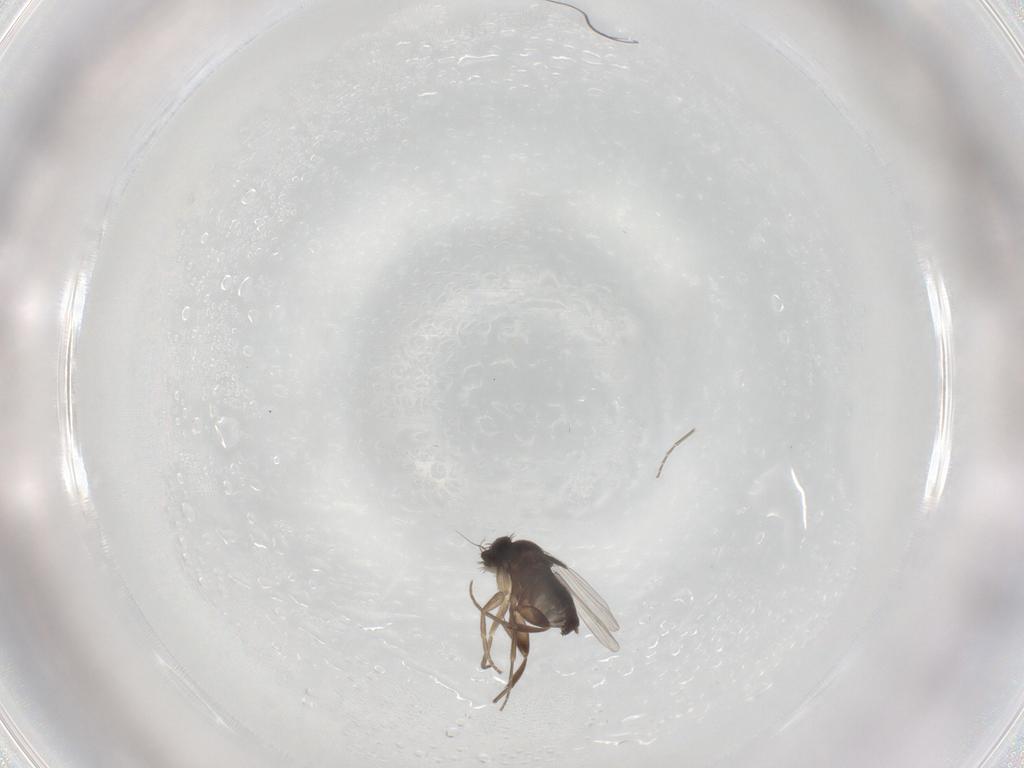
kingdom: Animalia
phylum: Arthropoda
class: Insecta
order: Diptera
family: Phoridae
